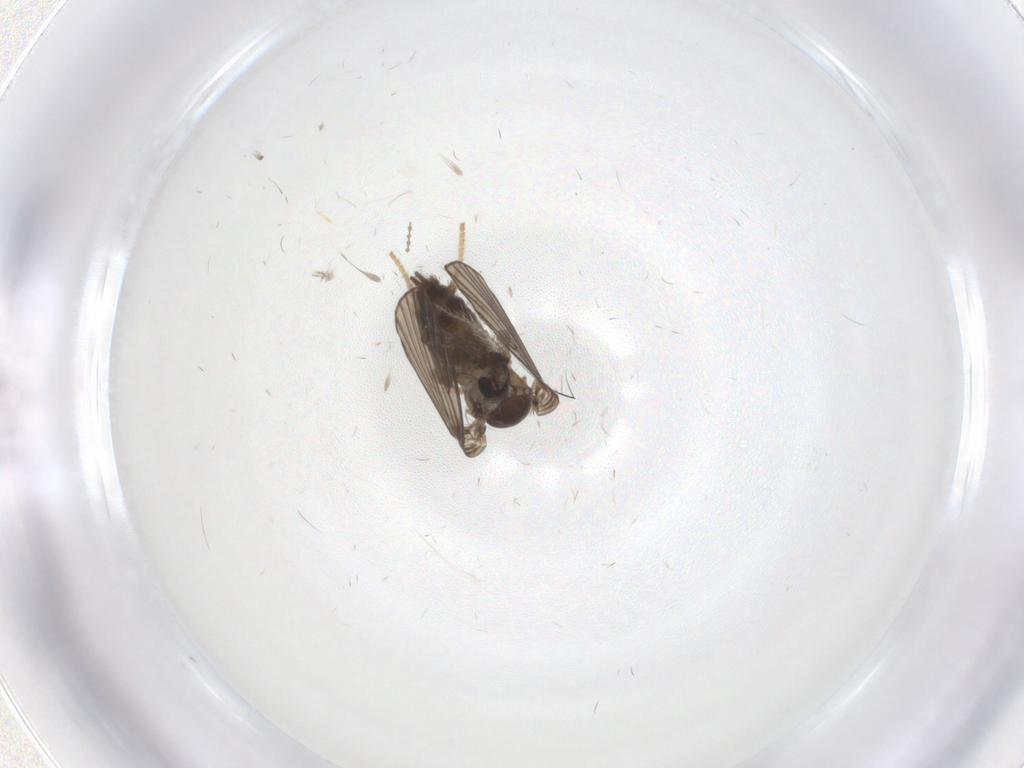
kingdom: Animalia
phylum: Arthropoda
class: Insecta
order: Diptera
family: Psychodidae
